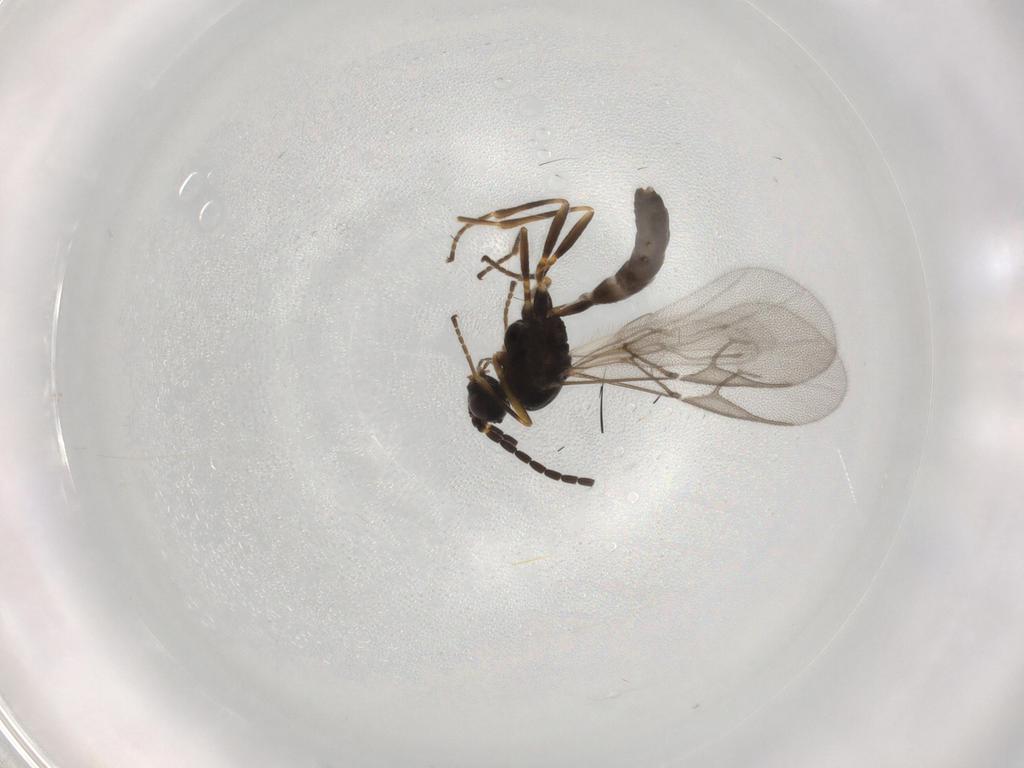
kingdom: Animalia
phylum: Arthropoda
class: Insecta
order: Hymenoptera
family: Braconidae
